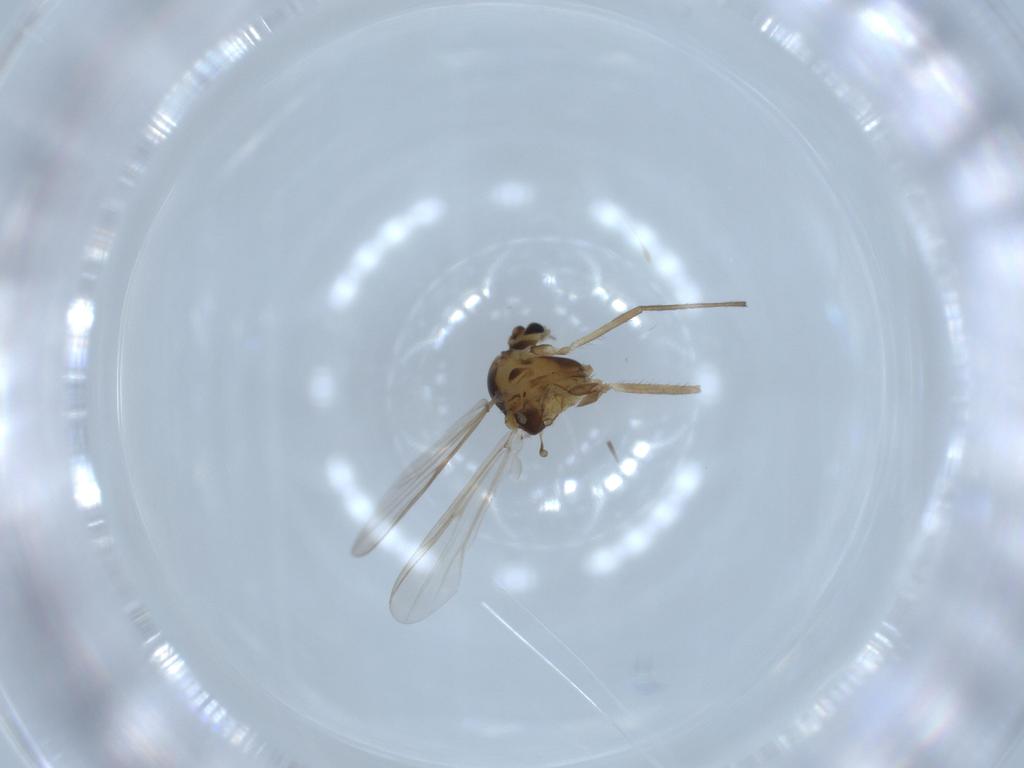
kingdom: Animalia
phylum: Arthropoda
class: Insecta
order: Diptera
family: Chironomidae
